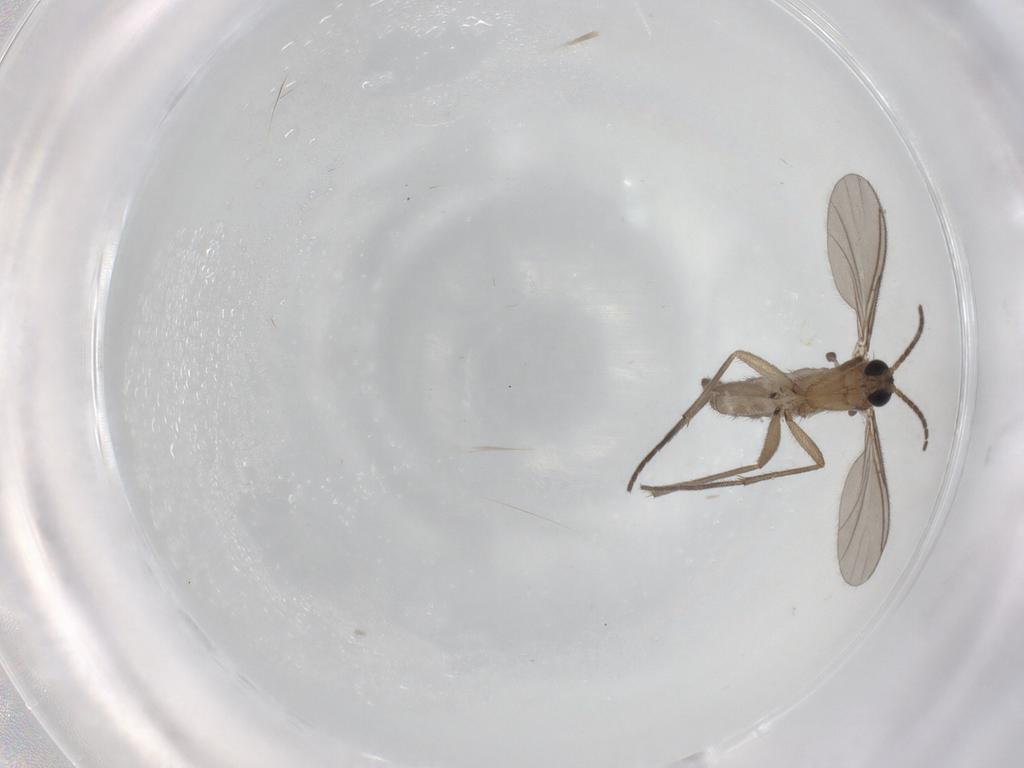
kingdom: Animalia
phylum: Arthropoda
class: Insecta
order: Diptera
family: Sciaridae
